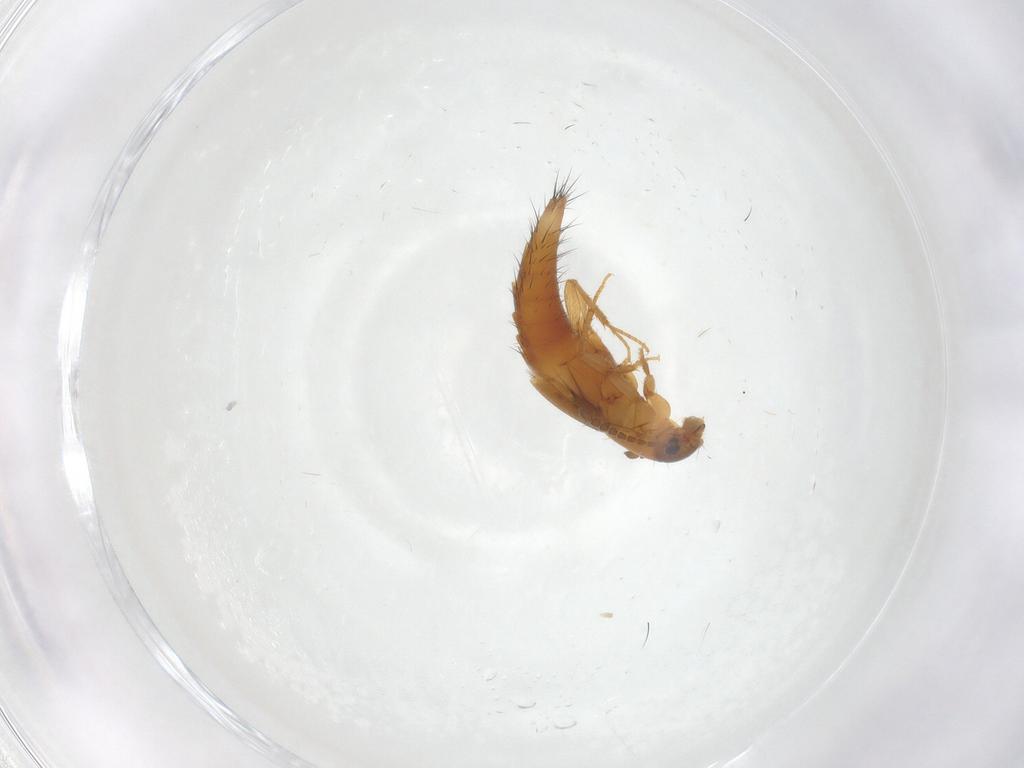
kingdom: Animalia
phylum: Arthropoda
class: Insecta
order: Coleoptera
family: Staphylinidae
